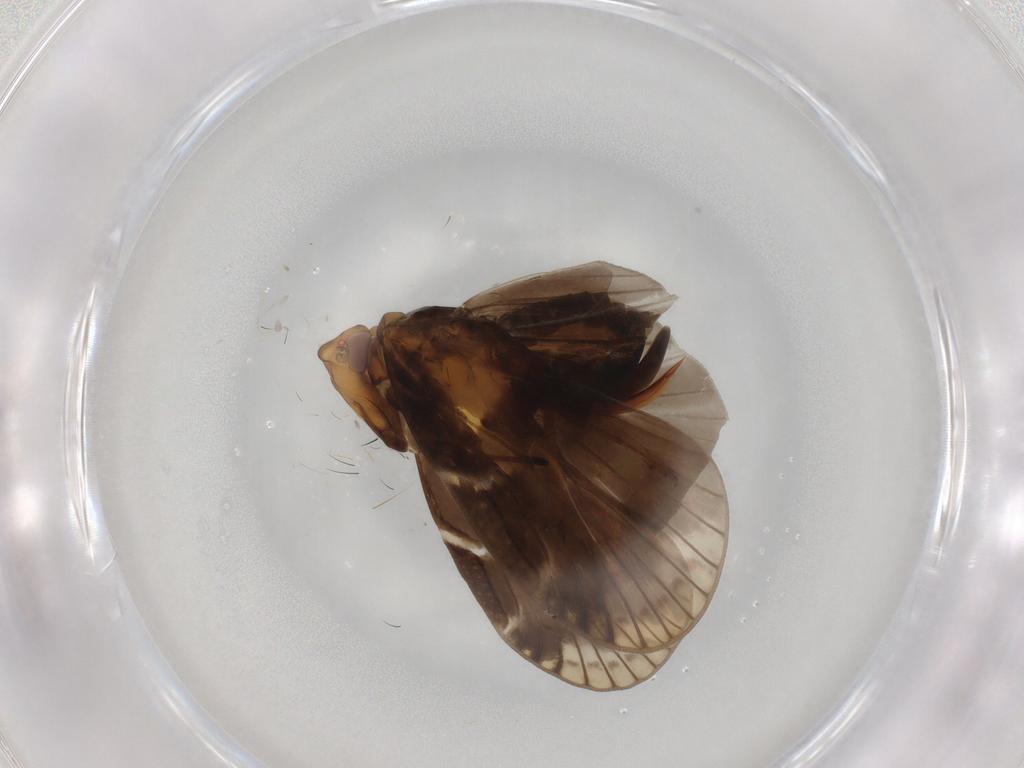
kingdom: Animalia
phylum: Arthropoda
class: Insecta
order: Hemiptera
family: Cixiidae
